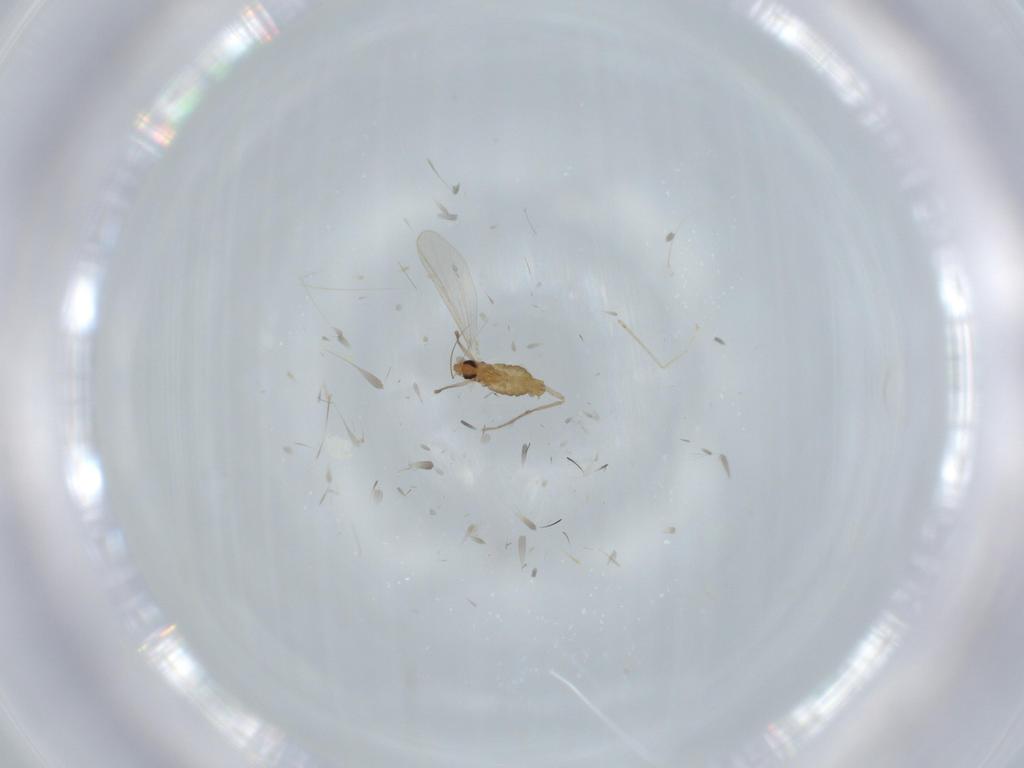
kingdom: Animalia
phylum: Arthropoda
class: Insecta
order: Diptera
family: Chironomidae
